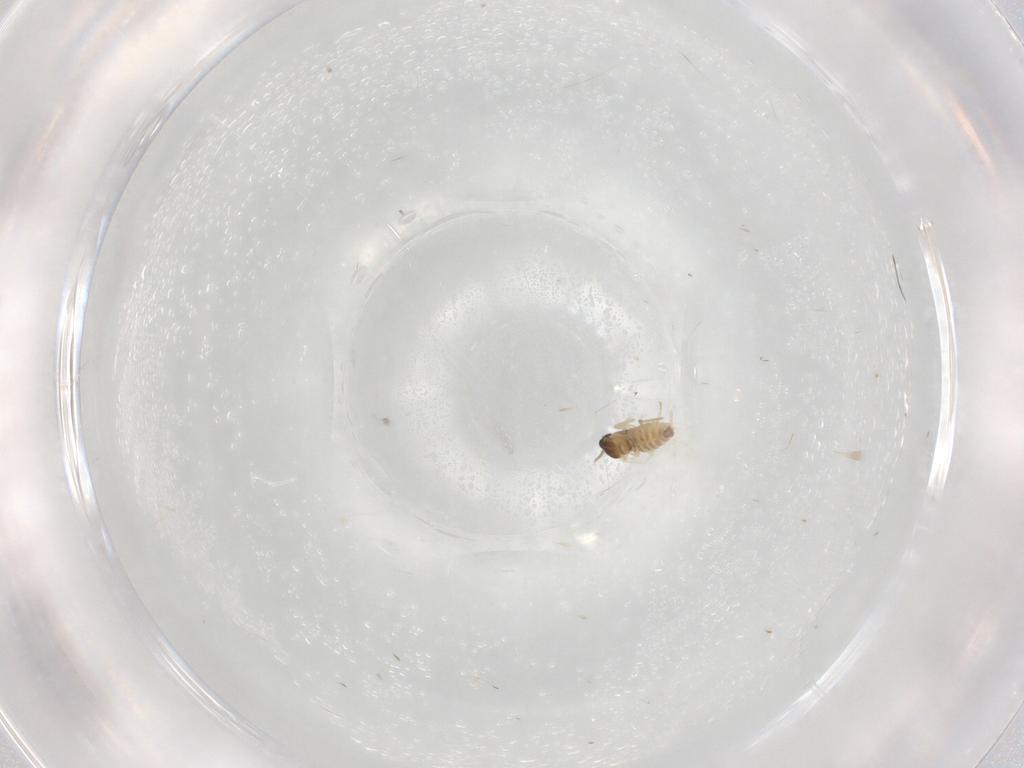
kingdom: Animalia
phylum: Arthropoda
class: Insecta
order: Diptera
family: Cecidomyiidae
